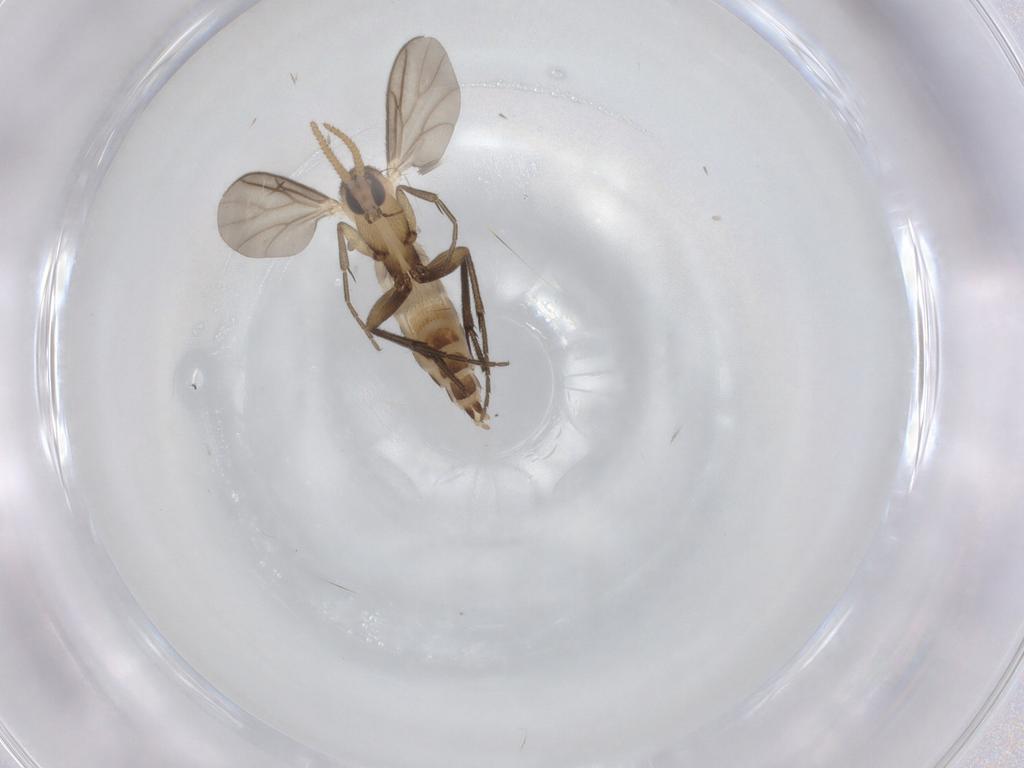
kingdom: Animalia
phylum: Arthropoda
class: Insecta
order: Diptera
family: Mycetophilidae
